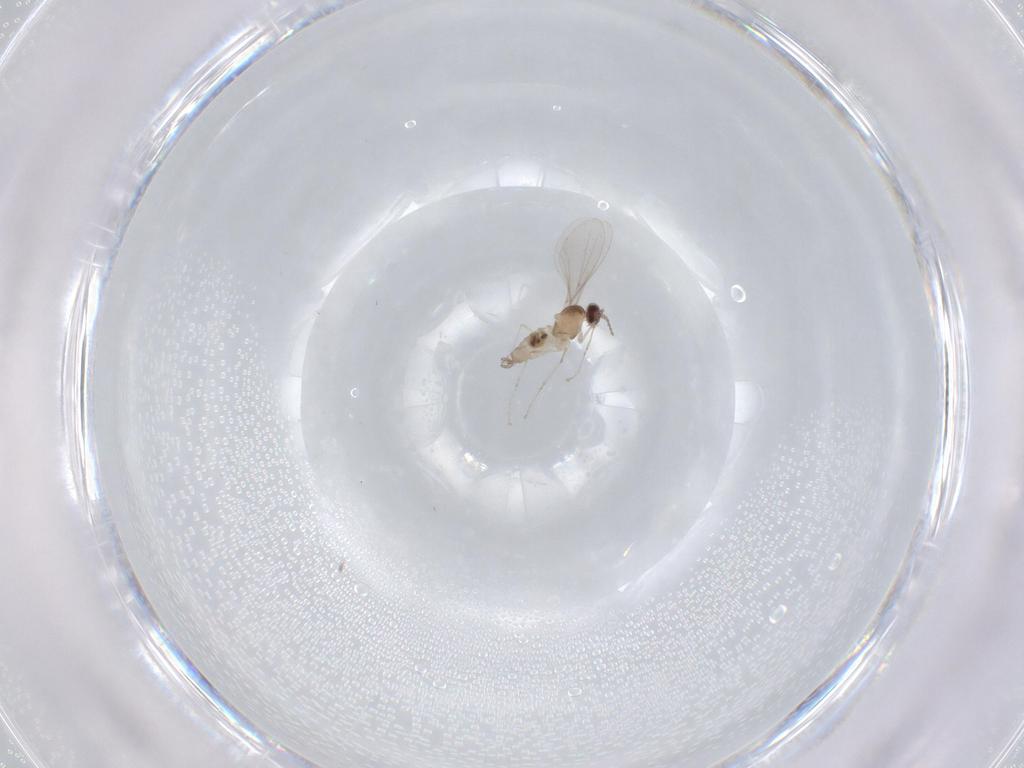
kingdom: Animalia
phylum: Arthropoda
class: Insecta
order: Diptera
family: Cecidomyiidae
